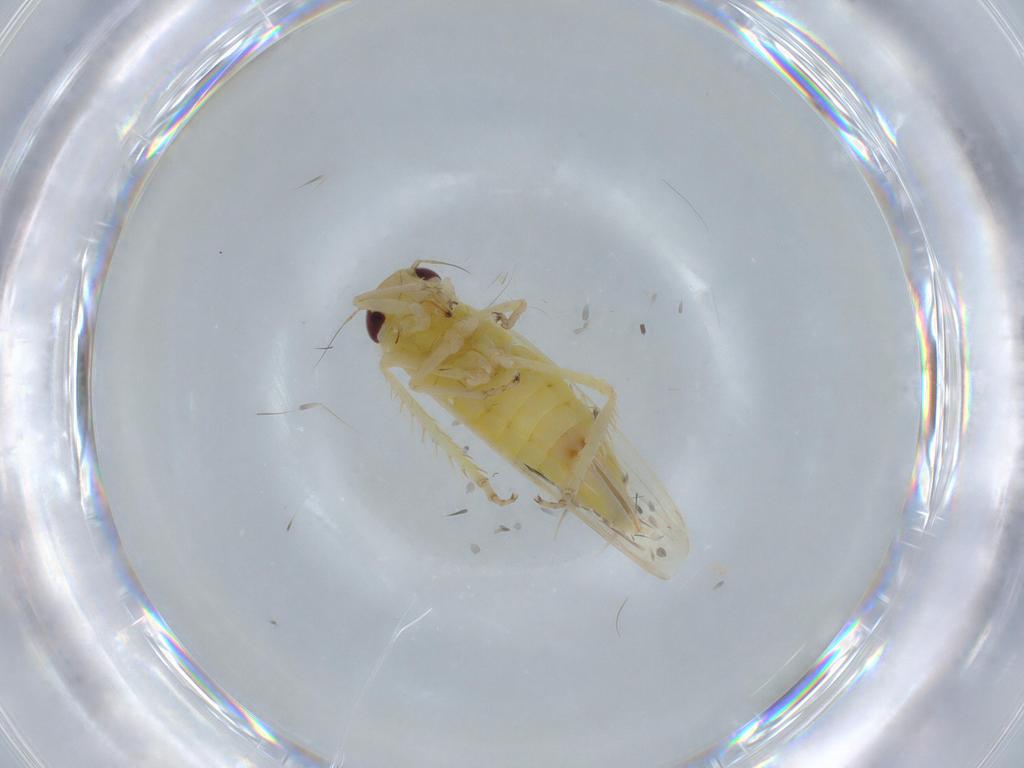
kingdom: Animalia
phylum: Arthropoda
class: Insecta
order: Hemiptera
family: Cicadellidae
